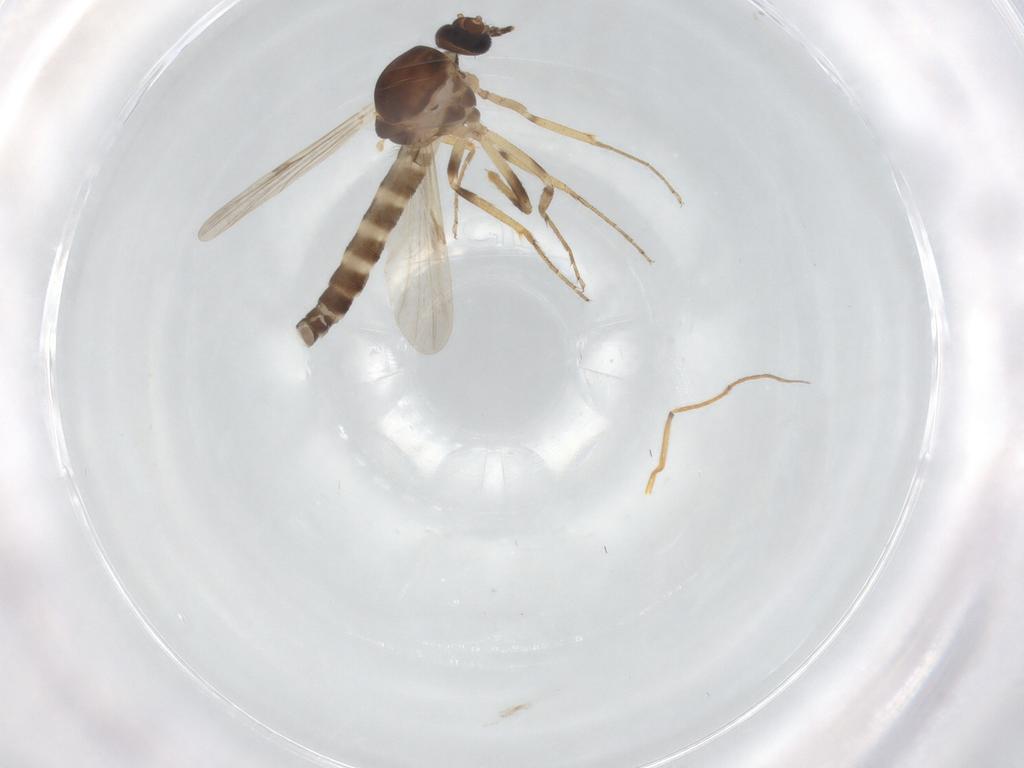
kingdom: Animalia
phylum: Arthropoda
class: Insecta
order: Diptera
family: Ceratopogonidae
